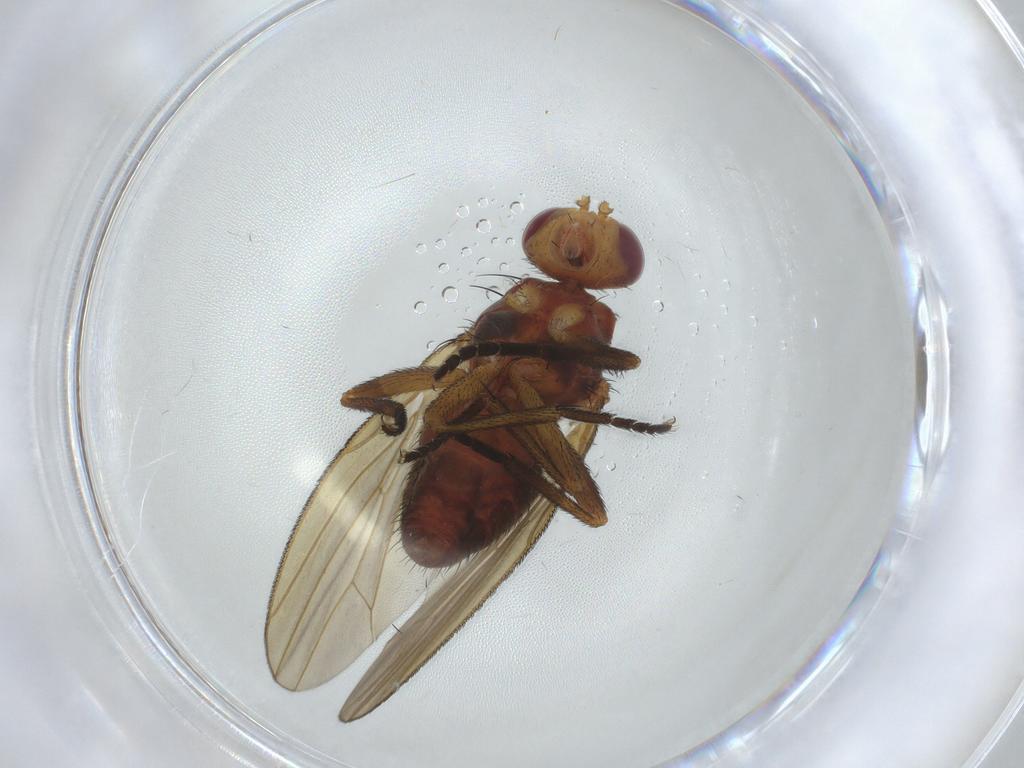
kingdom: Animalia
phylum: Arthropoda
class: Insecta
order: Diptera
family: Sciomyzidae
